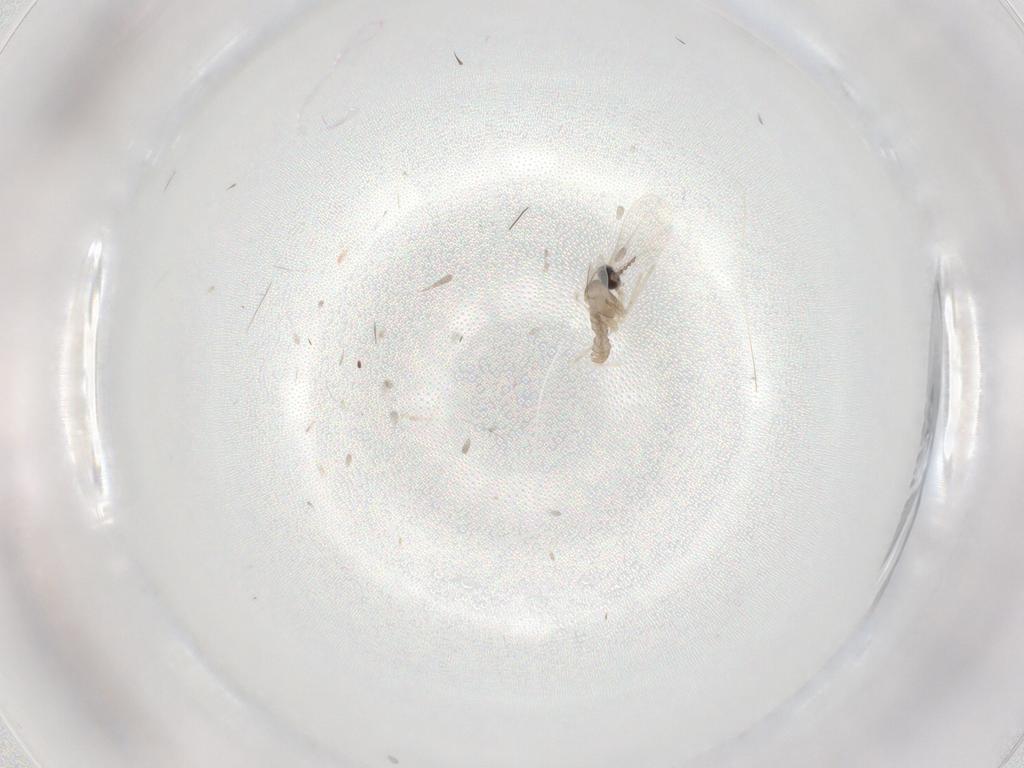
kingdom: Animalia
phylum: Arthropoda
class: Insecta
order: Diptera
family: Cecidomyiidae
